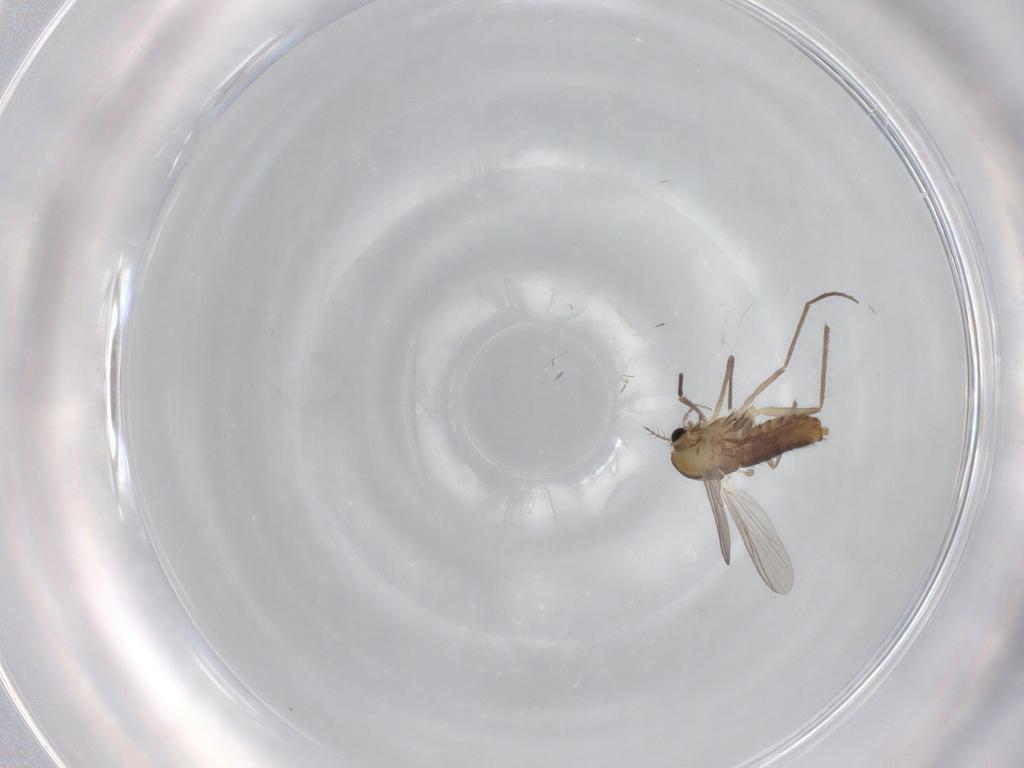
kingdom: Animalia
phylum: Arthropoda
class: Insecta
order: Diptera
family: Chironomidae
